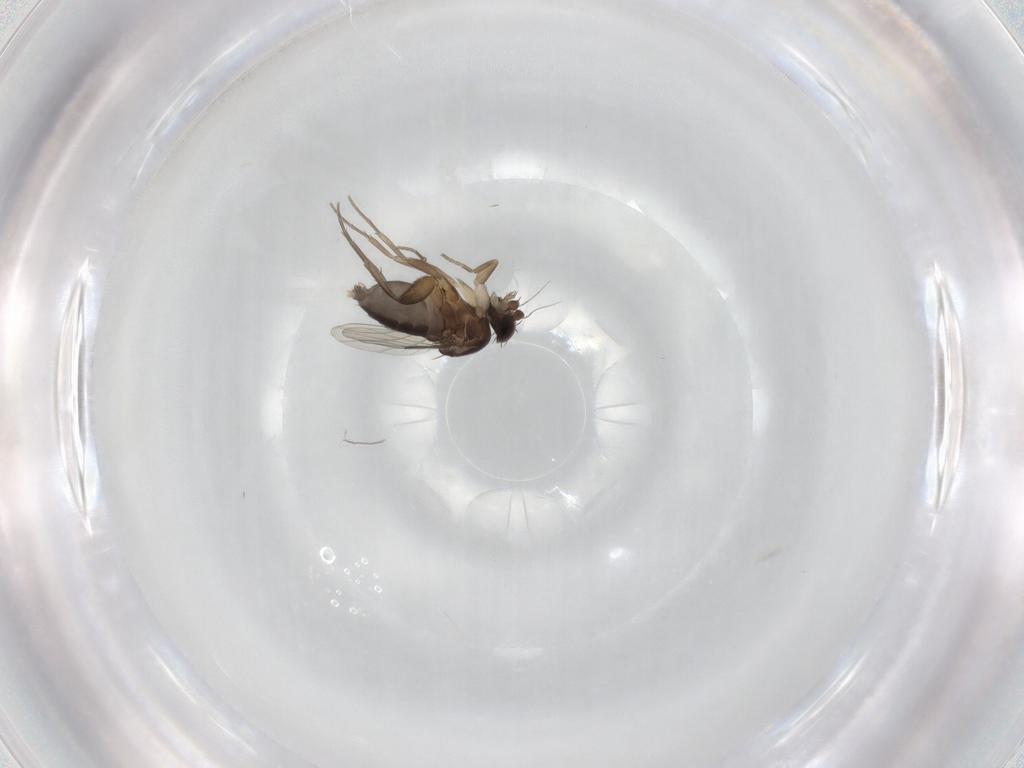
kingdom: Animalia
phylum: Arthropoda
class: Insecta
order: Diptera
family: Phoridae
